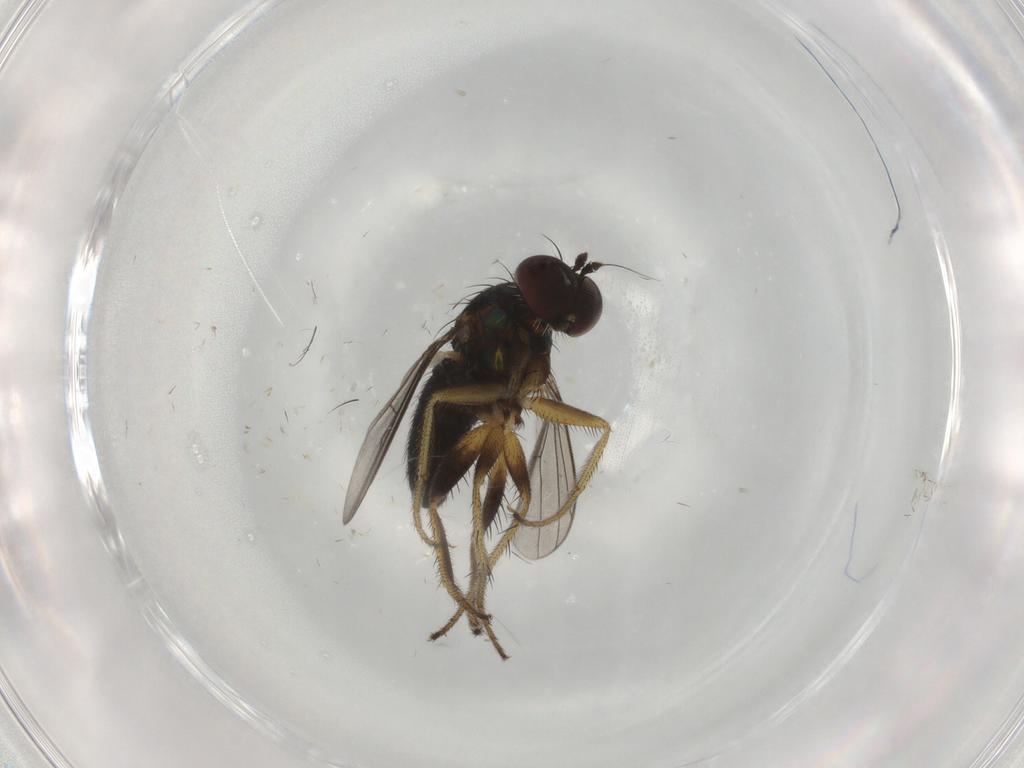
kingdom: Animalia
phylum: Arthropoda
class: Insecta
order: Diptera
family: Dolichopodidae
